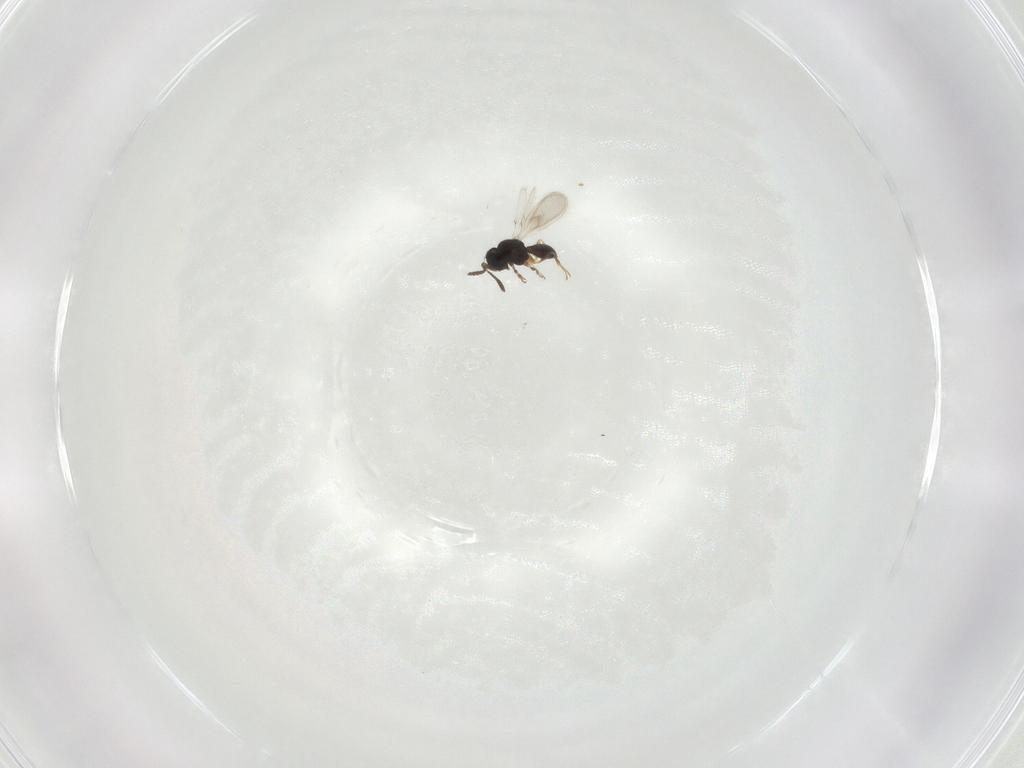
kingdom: Animalia
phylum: Arthropoda
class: Insecta
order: Hymenoptera
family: Scelionidae
